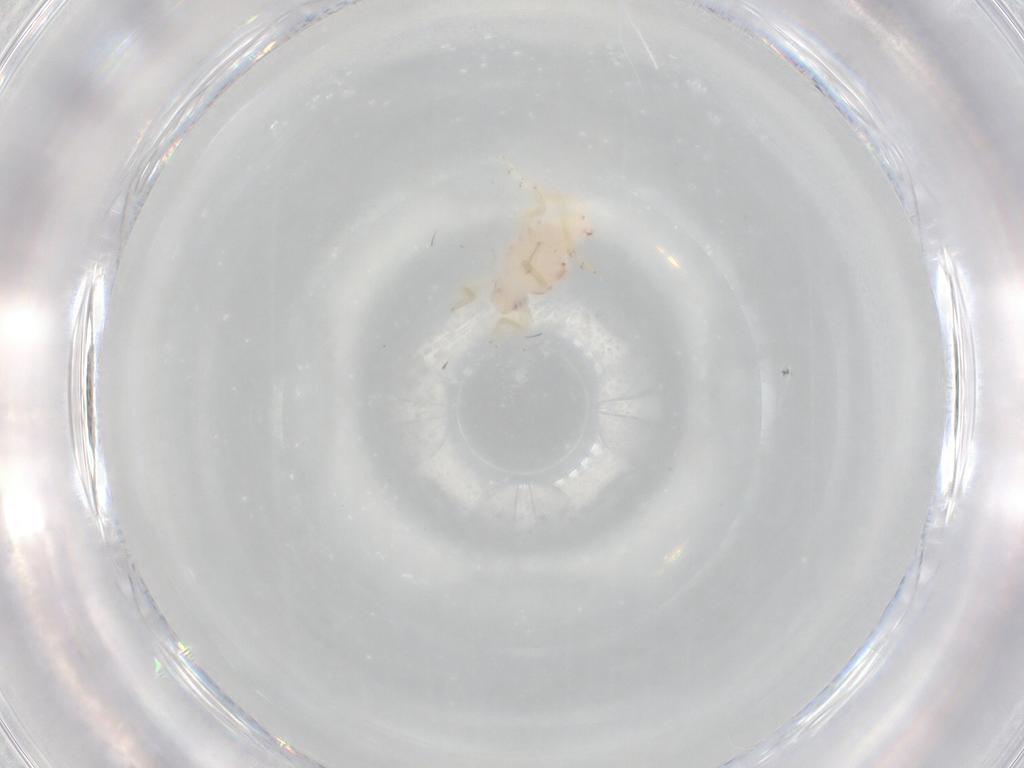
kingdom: Animalia
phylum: Arthropoda
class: Insecta
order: Hemiptera
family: Tropiduchidae
